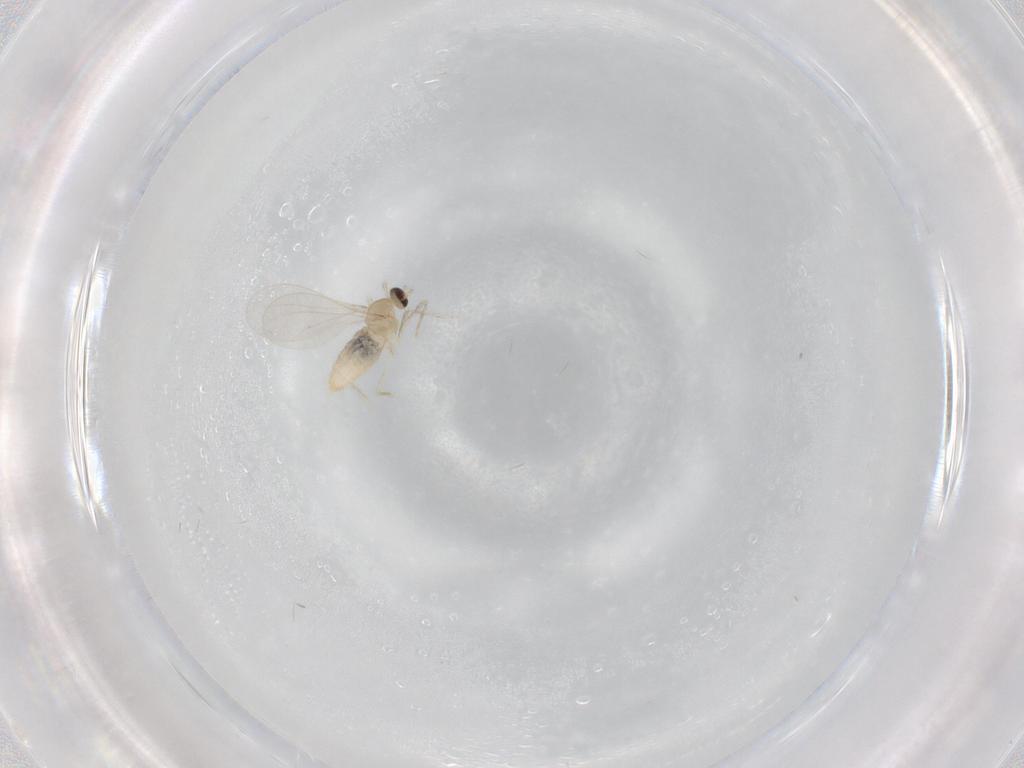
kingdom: Animalia
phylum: Arthropoda
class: Insecta
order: Diptera
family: Cecidomyiidae
